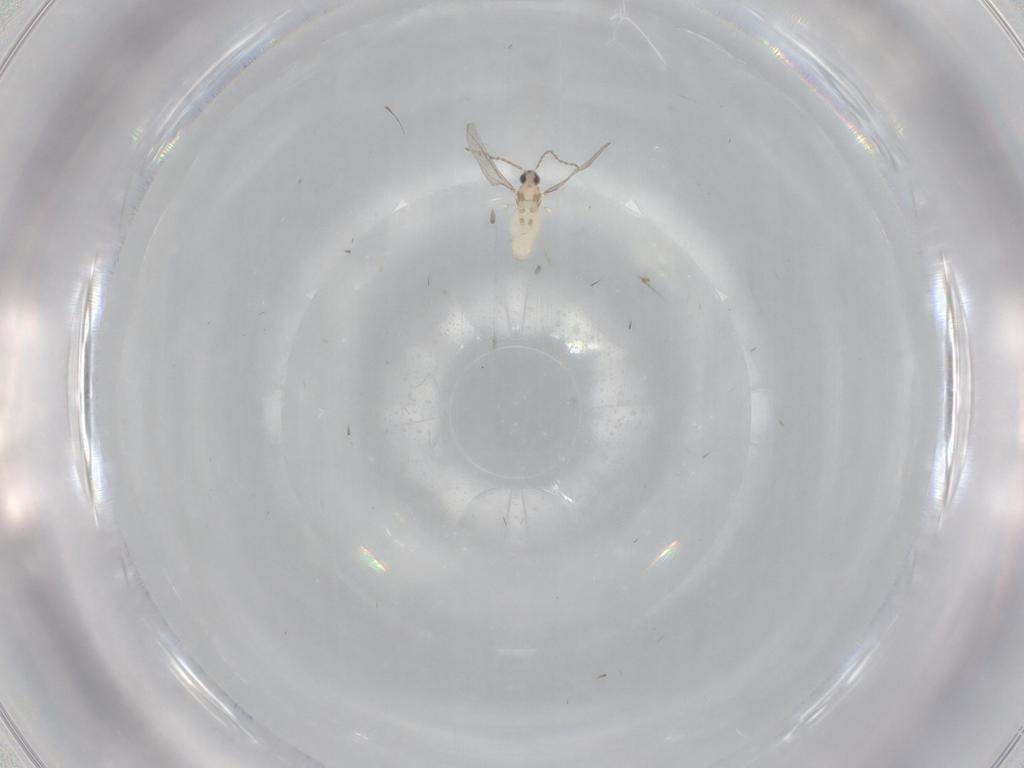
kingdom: Animalia
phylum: Arthropoda
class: Insecta
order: Diptera
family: Cecidomyiidae
